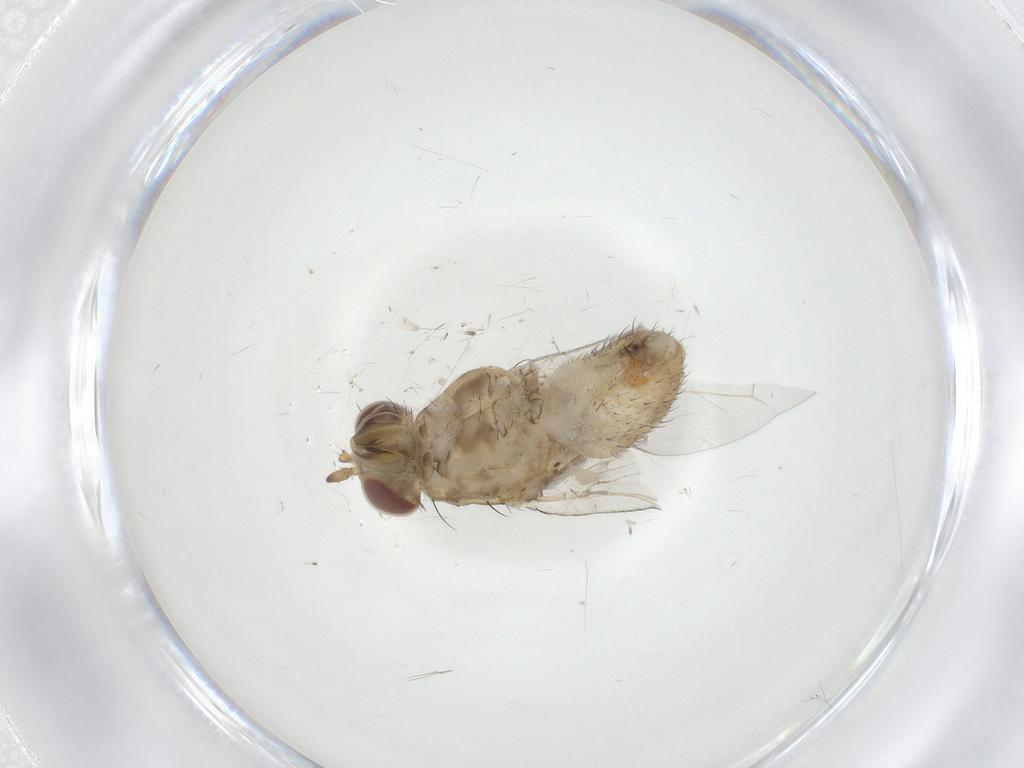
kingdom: Animalia
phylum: Arthropoda
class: Insecta
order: Diptera
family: Lauxaniidae
